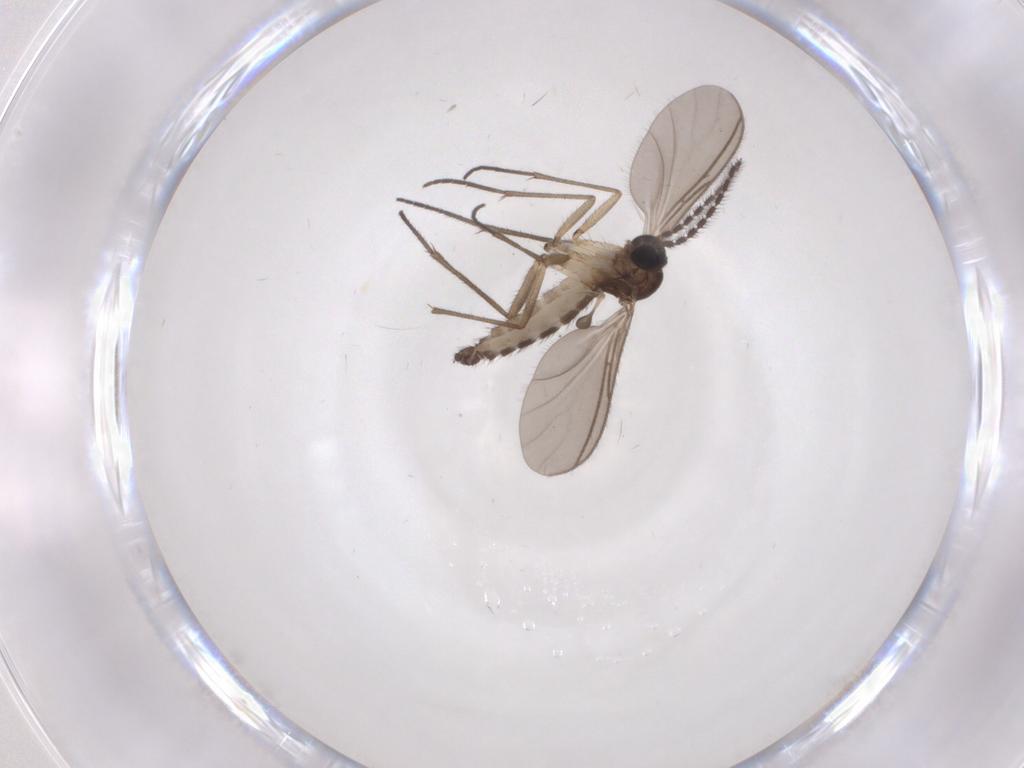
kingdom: Animalia
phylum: Arthropoda
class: Insecta
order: Diptera
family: Sciaridae
